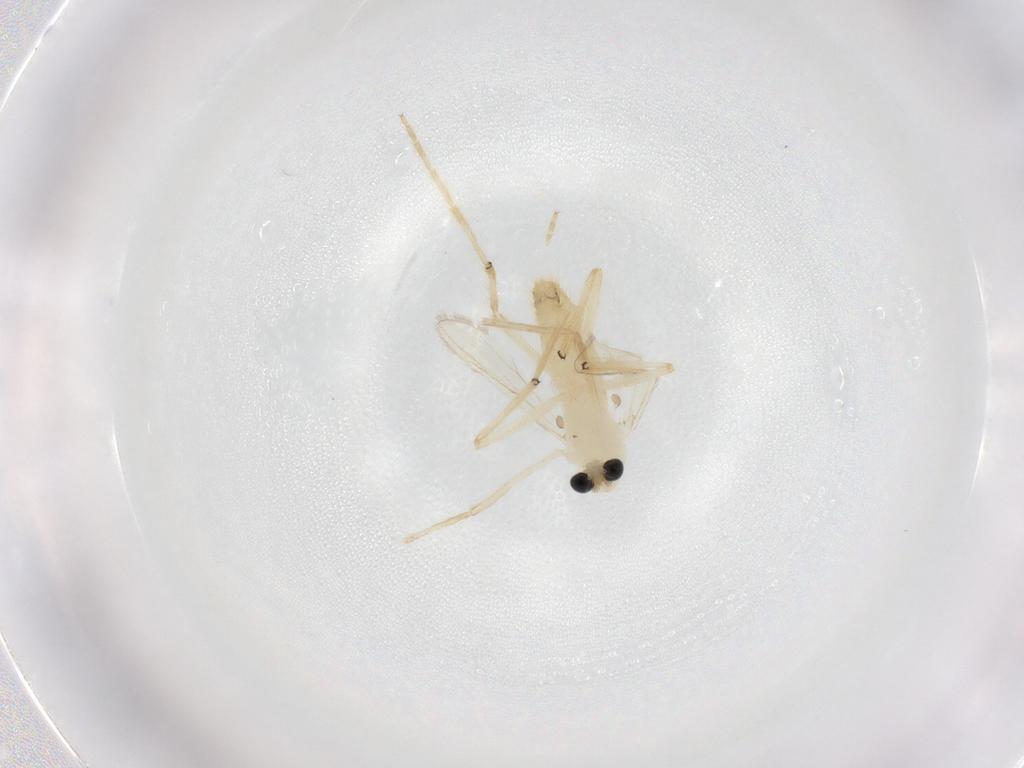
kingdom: Animalia
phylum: Arthropoda
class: Insecta
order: Diptera
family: Chironomidae
